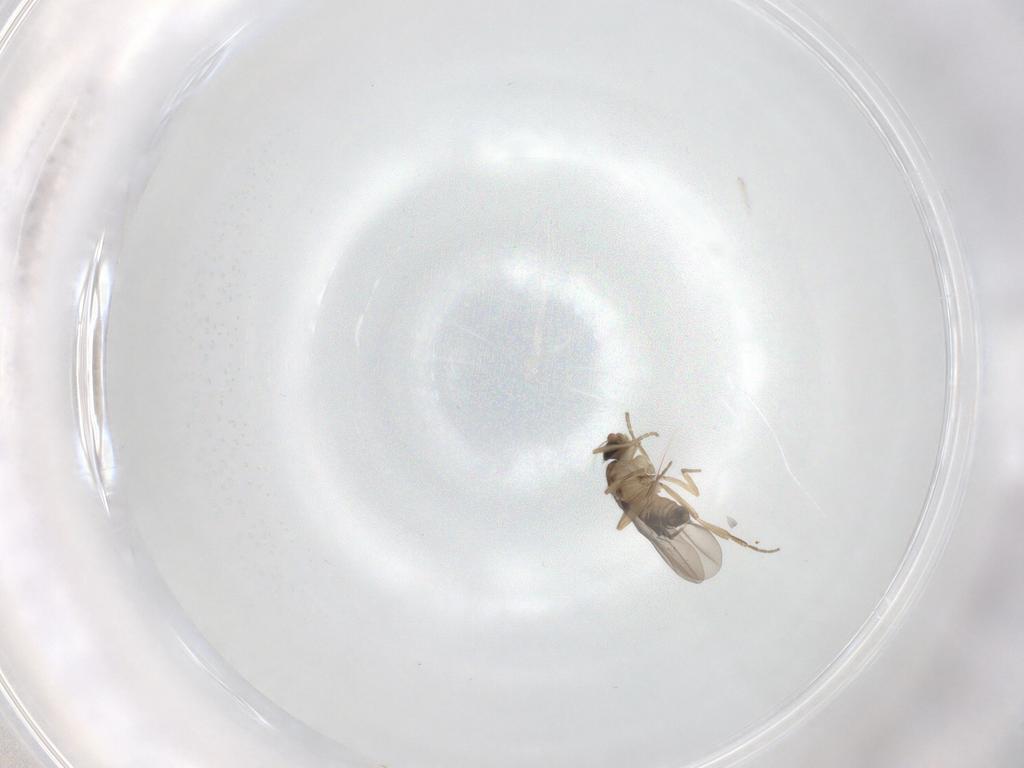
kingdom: Animalia
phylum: Arthropoda
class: Insecta
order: Diptera
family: Phoridae
